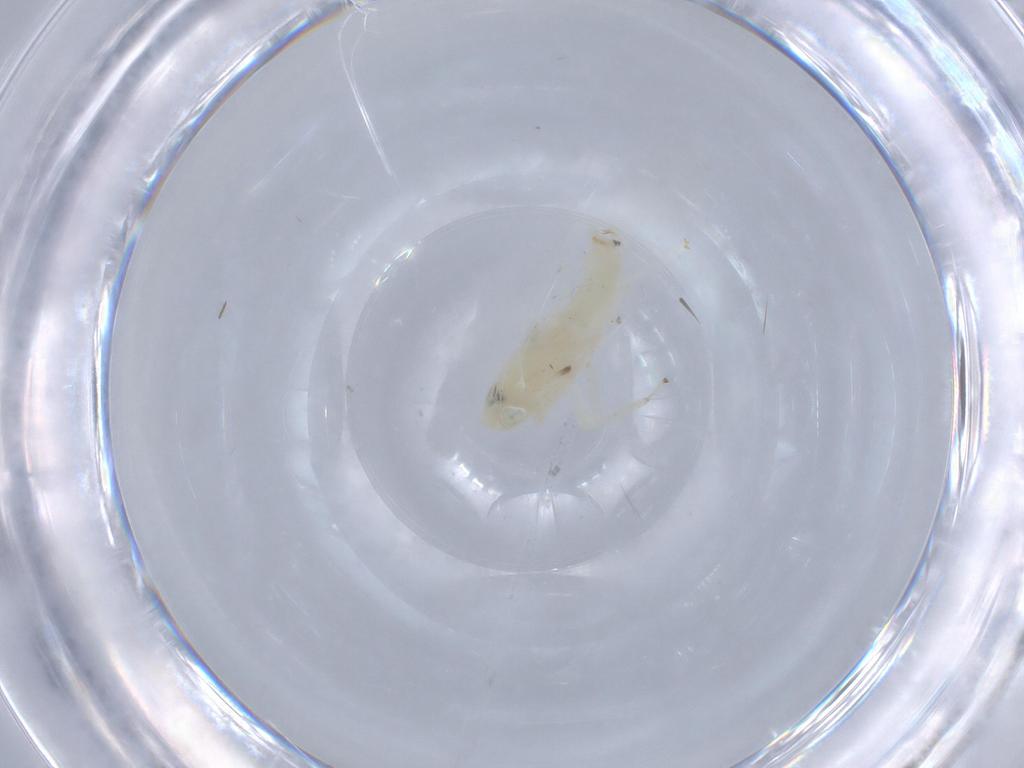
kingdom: Animalia
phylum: Arthropoda
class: Insecta
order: Hemiptera
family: Cicadellidae
